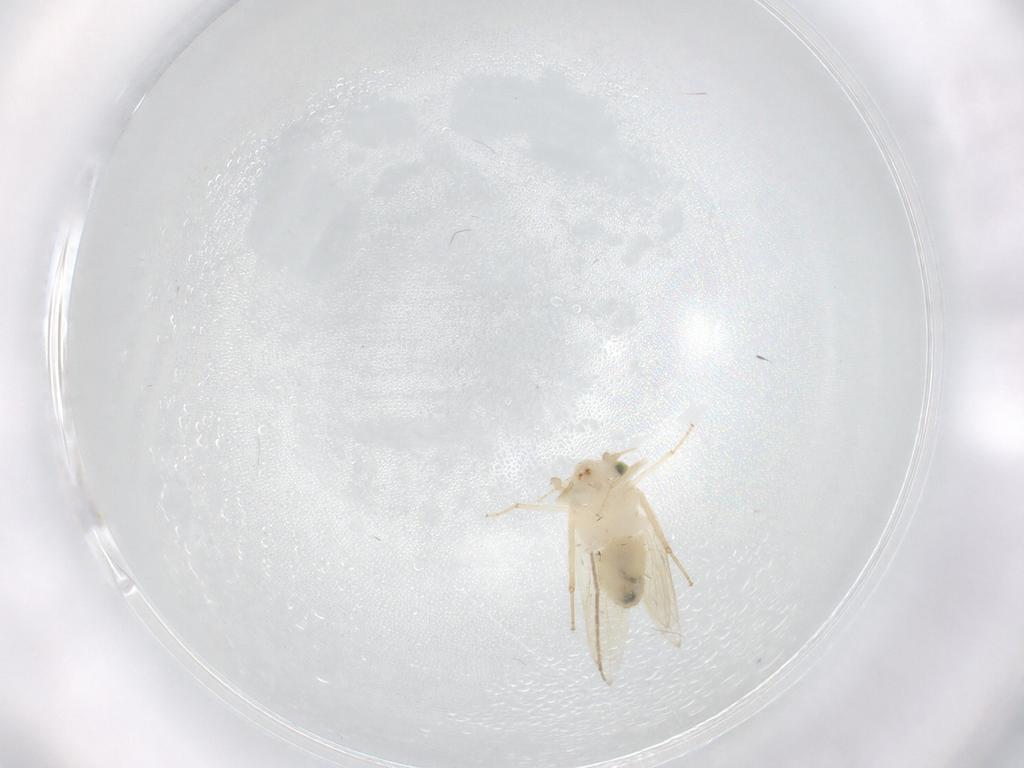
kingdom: Animalia
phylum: Arthropoda
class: Insecta
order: Psocodea
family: Lepidopsocidae
